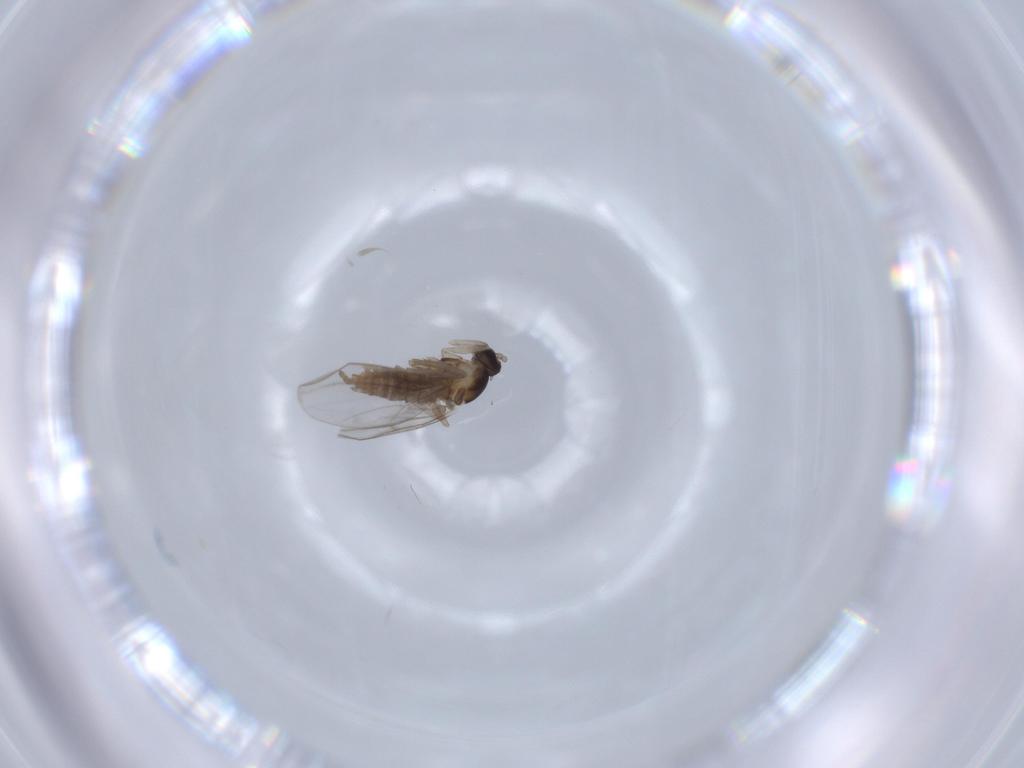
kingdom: Animalia
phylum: Arthropoda
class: Insecta
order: Diptera
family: Cecidomyiidae
